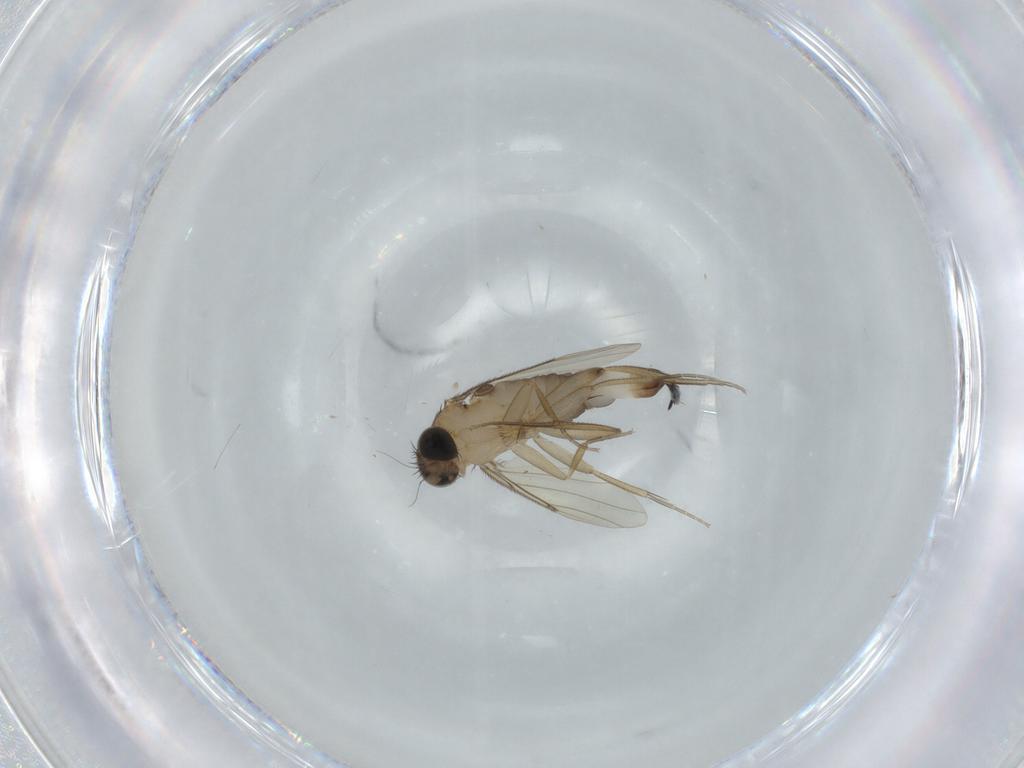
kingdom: Animalia
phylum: Arthropoda
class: Insecta
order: Diptera
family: Phoridae
